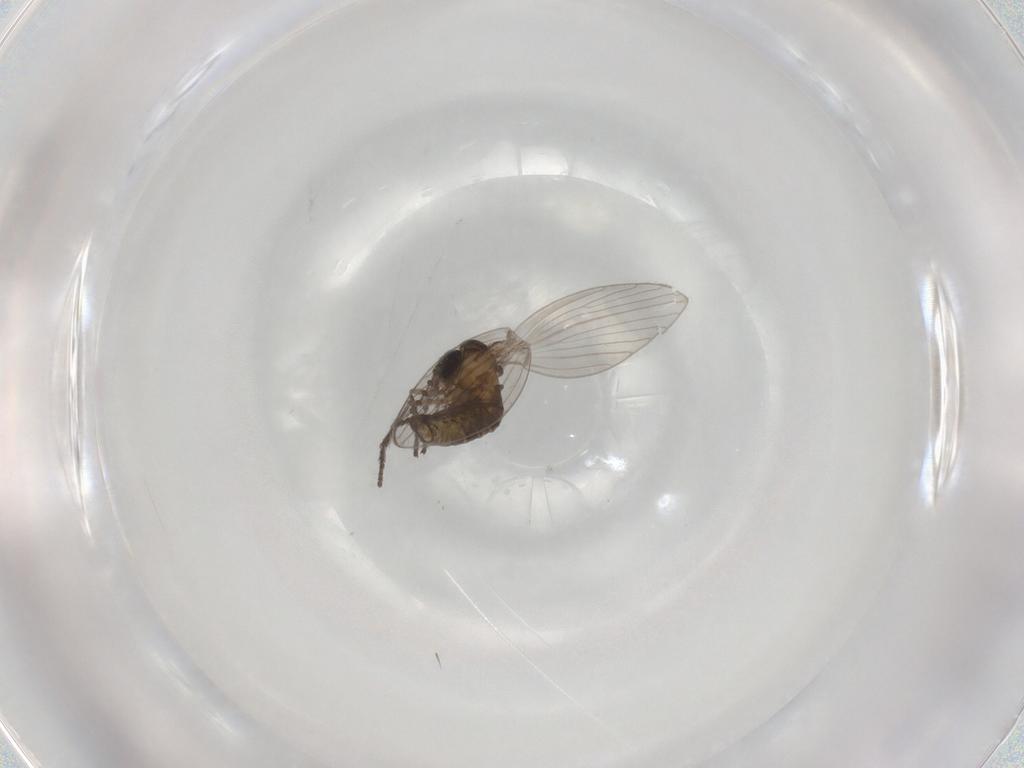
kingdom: Animalia
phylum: Arthropoda
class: Insecta
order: Diptera
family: Psychodidae
